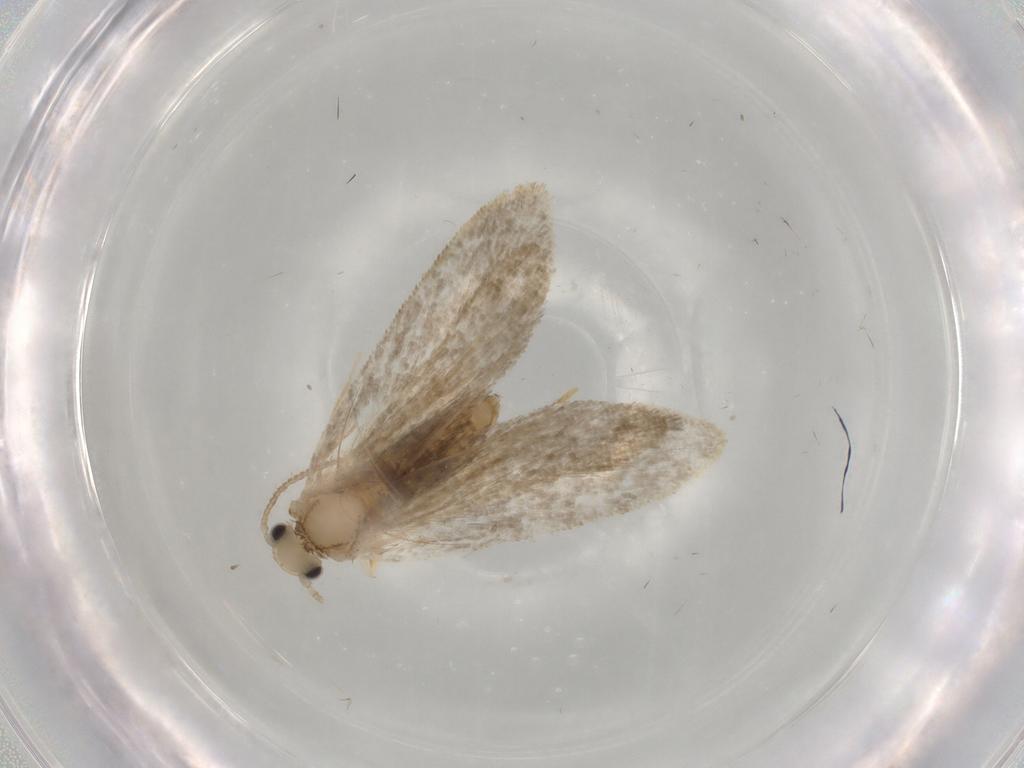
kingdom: Animalia
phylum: Arthropoda
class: Insecta
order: Lepidoptera
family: Psychidae
